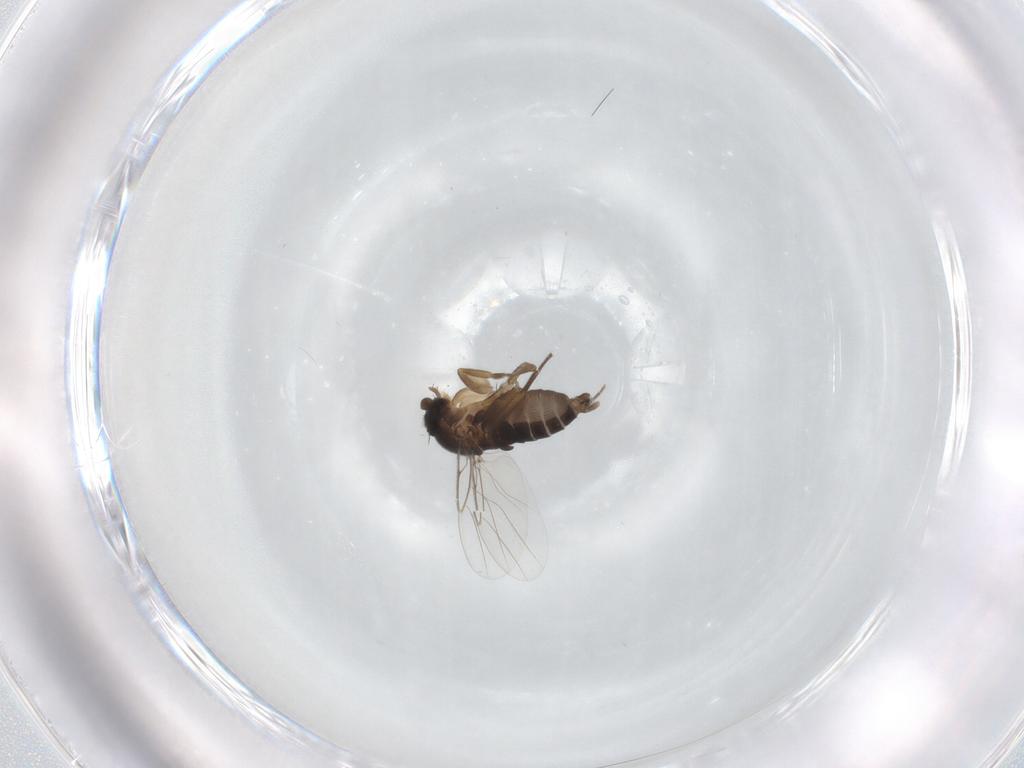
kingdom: Animalia
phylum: Arthropoda
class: Insecta
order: Diptera
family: Phoridae
